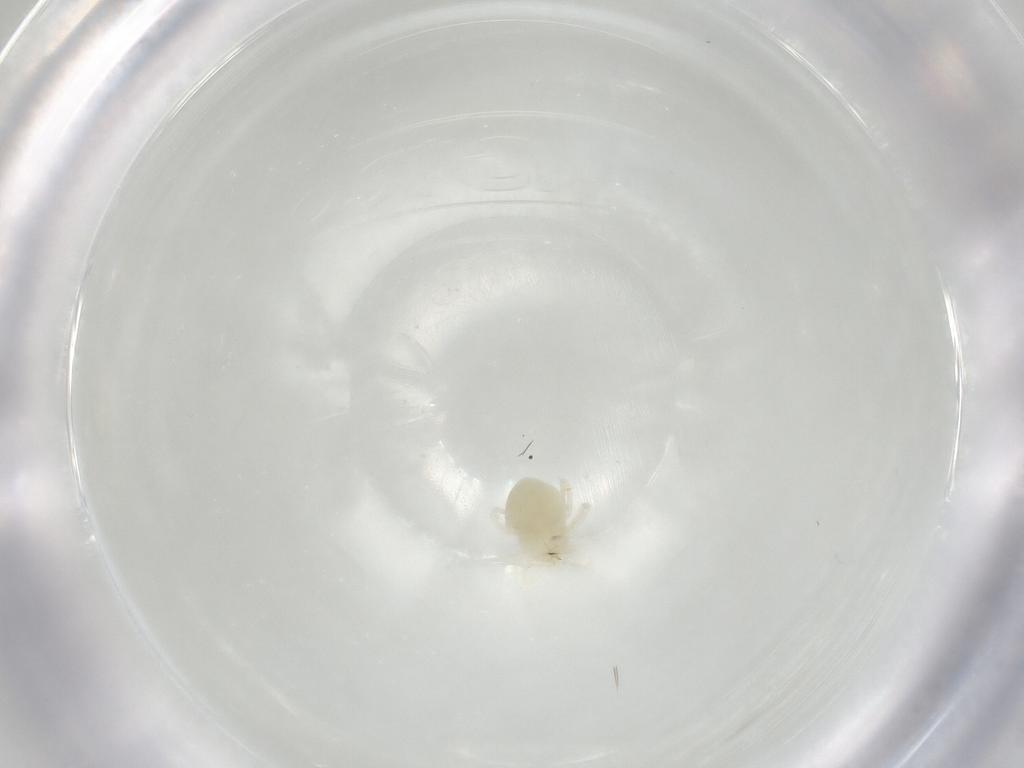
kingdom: Animalia
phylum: Arthropoda
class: Arachnida
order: Trombidiformes
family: Anystidae
